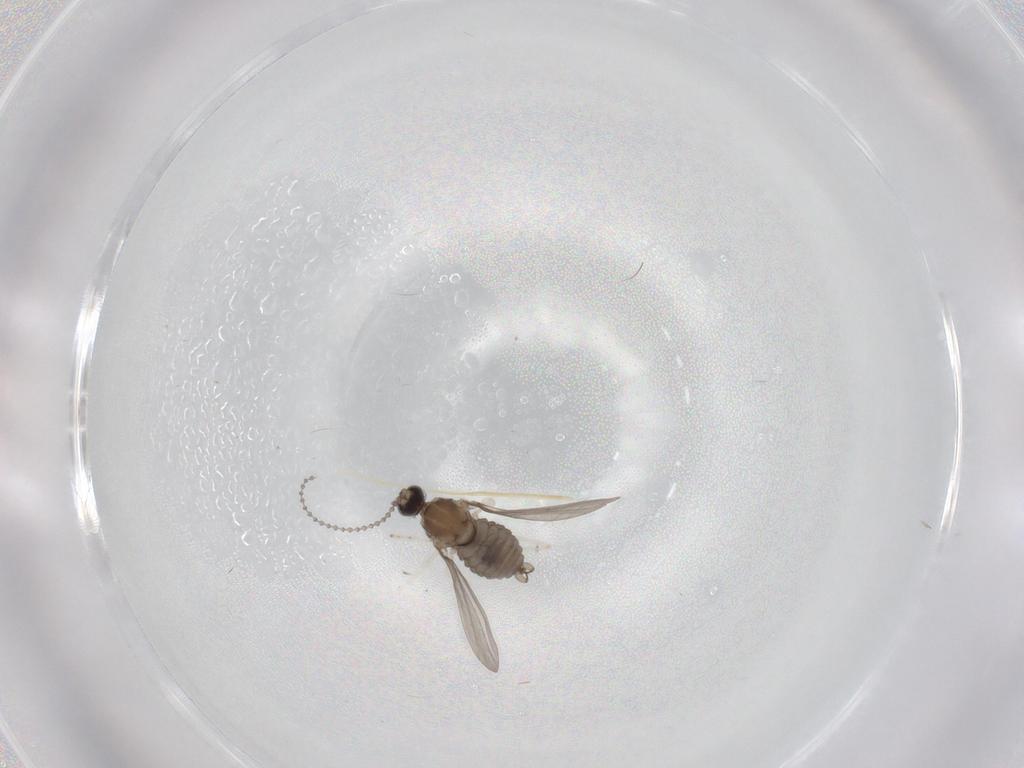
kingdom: Animalia
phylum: Arthropoda
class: Insecta
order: Diptera
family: Cecidomyiidae
